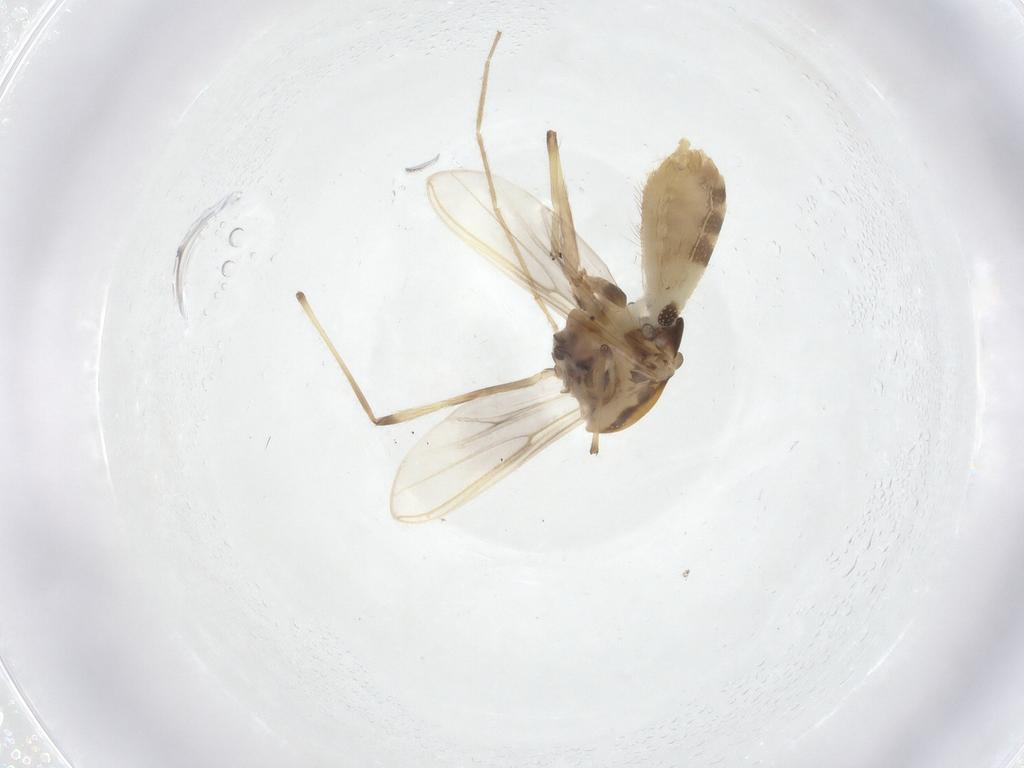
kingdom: Animalia
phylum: Arthropoda
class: Insecta
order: Diptera
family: Chironomidae
